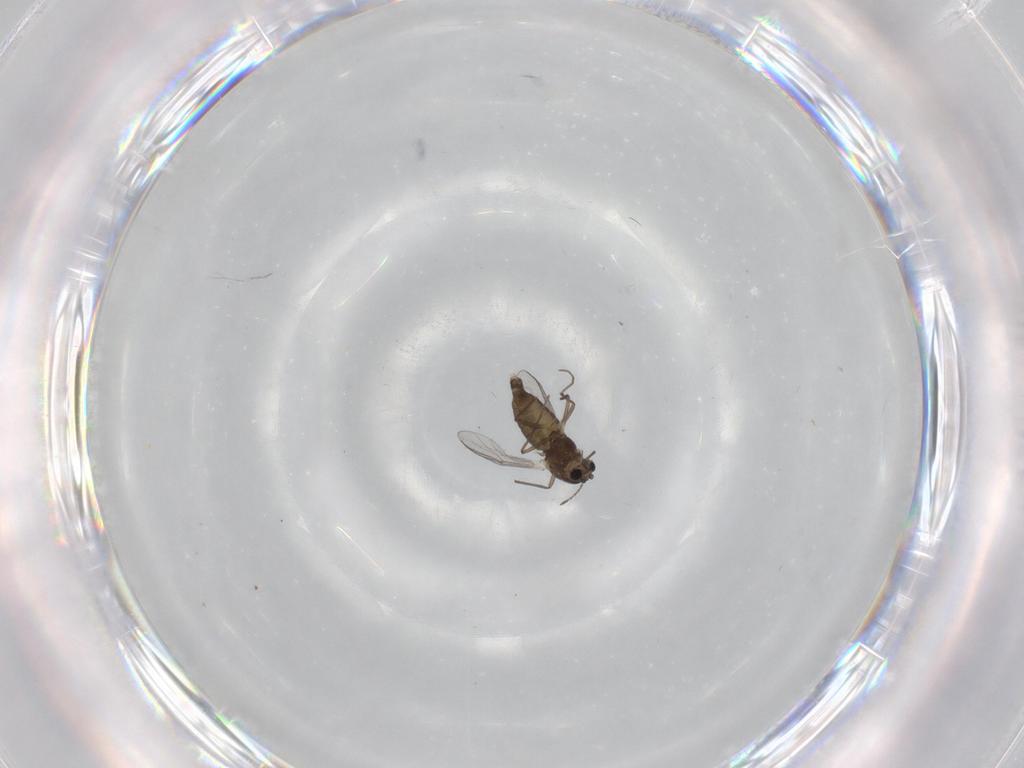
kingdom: Animalia
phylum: Arthropoda
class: Insecta
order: Diptera
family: Chironomidae
